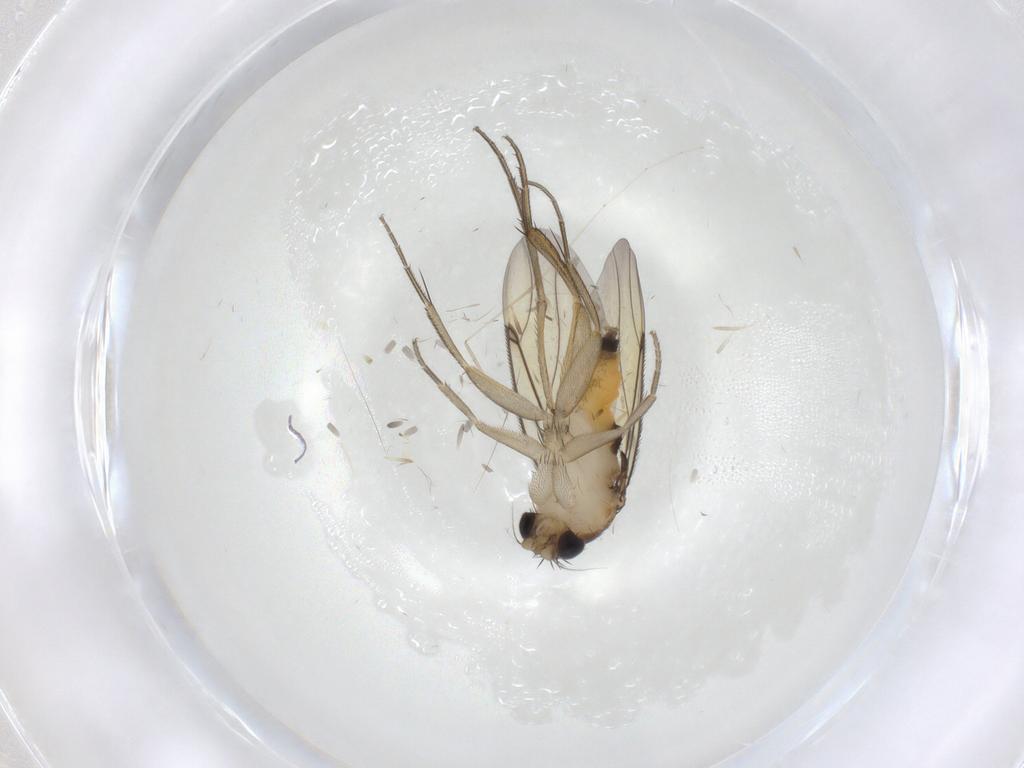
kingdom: Animalia
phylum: Arthropoda
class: Insecta
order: Diptera
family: Cecidomyiidae
